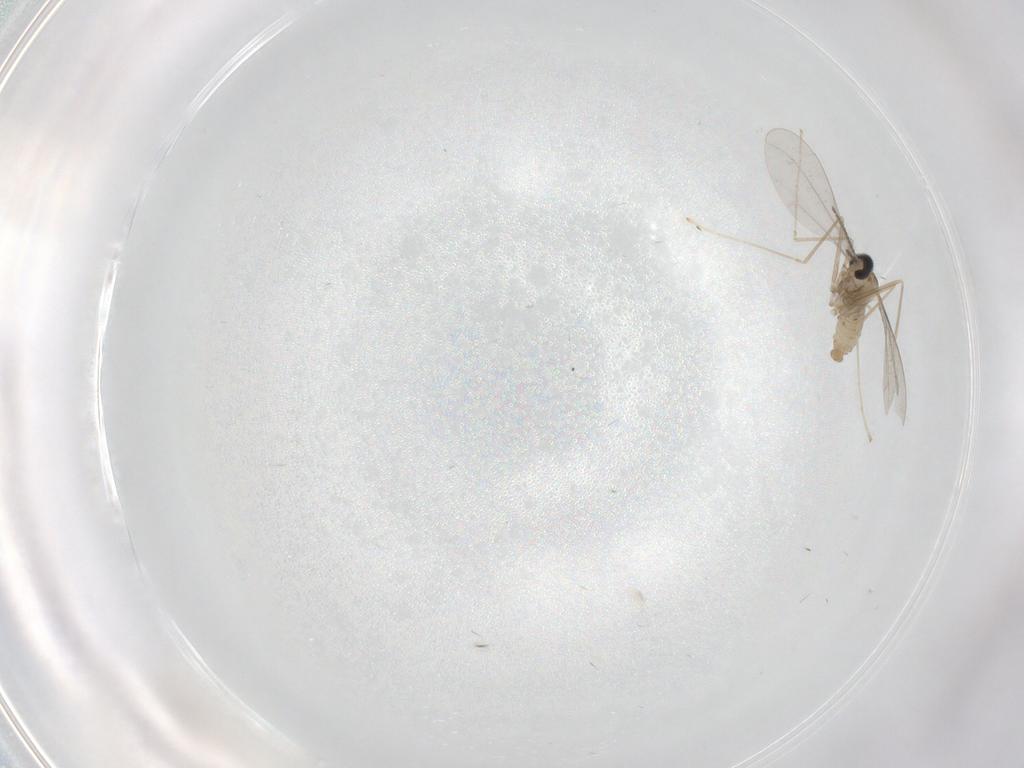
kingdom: Animalia
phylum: Arthropoda
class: Insecta
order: Diptera
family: Cecidomyiidae
